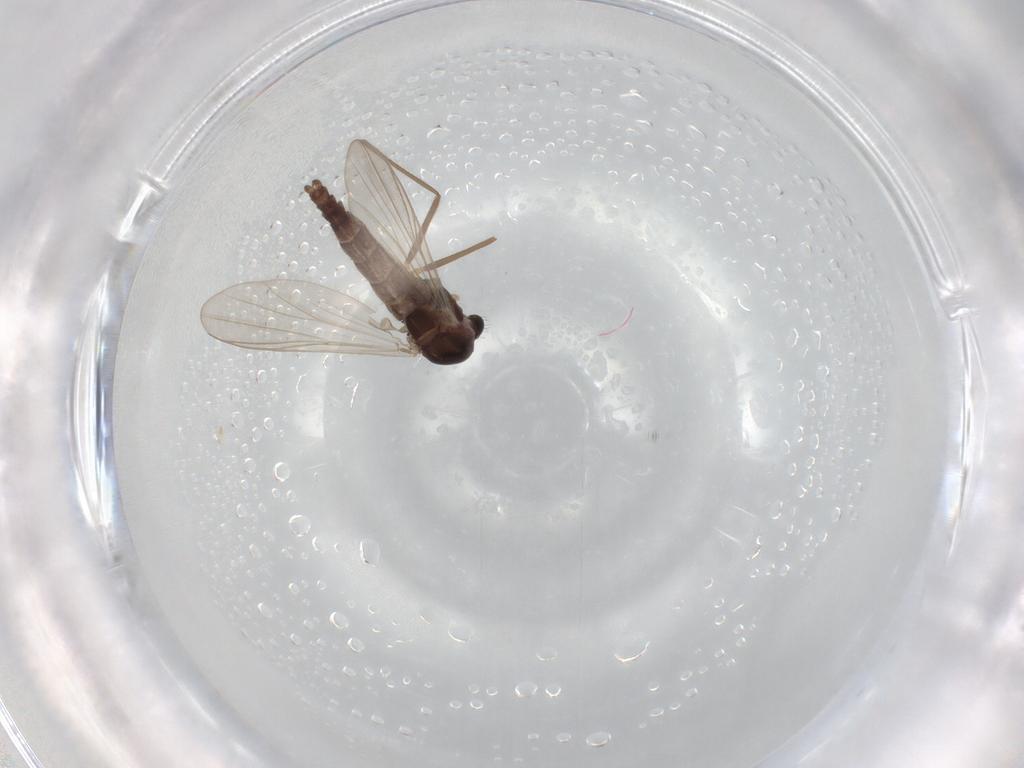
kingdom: Animalia
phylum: Arthropoda
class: Insecta
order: Diptera
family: Chironomidae
